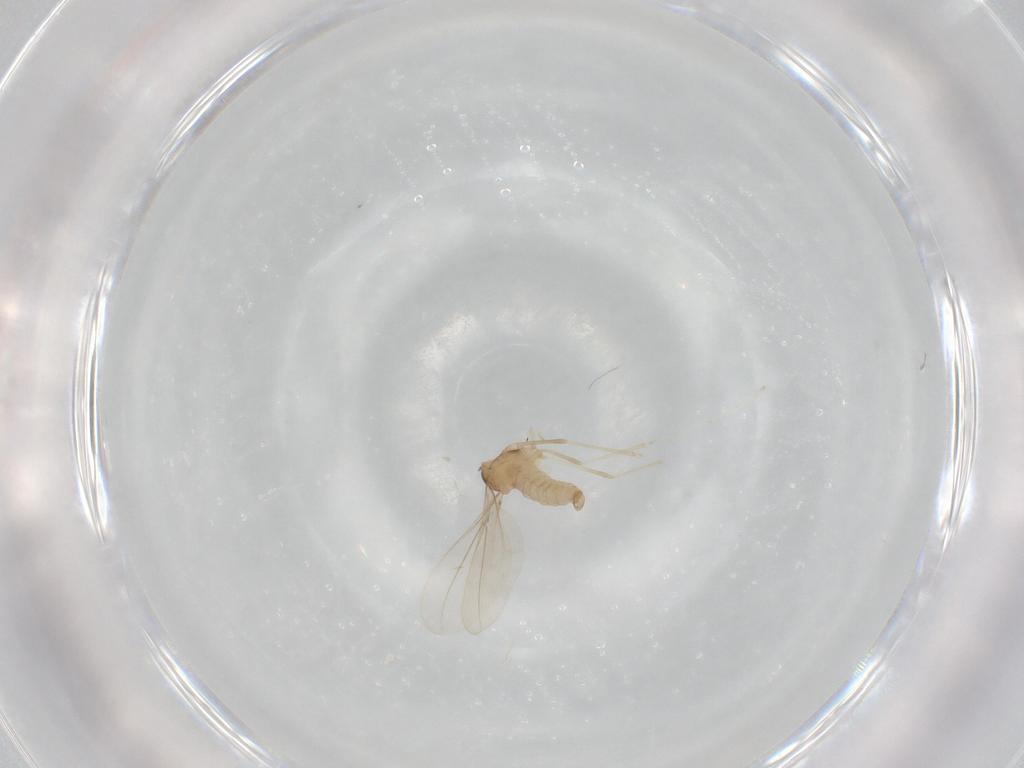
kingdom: Animalia
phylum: Arthropoda
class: Insecta
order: Diptera
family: Cecidomyiidae
